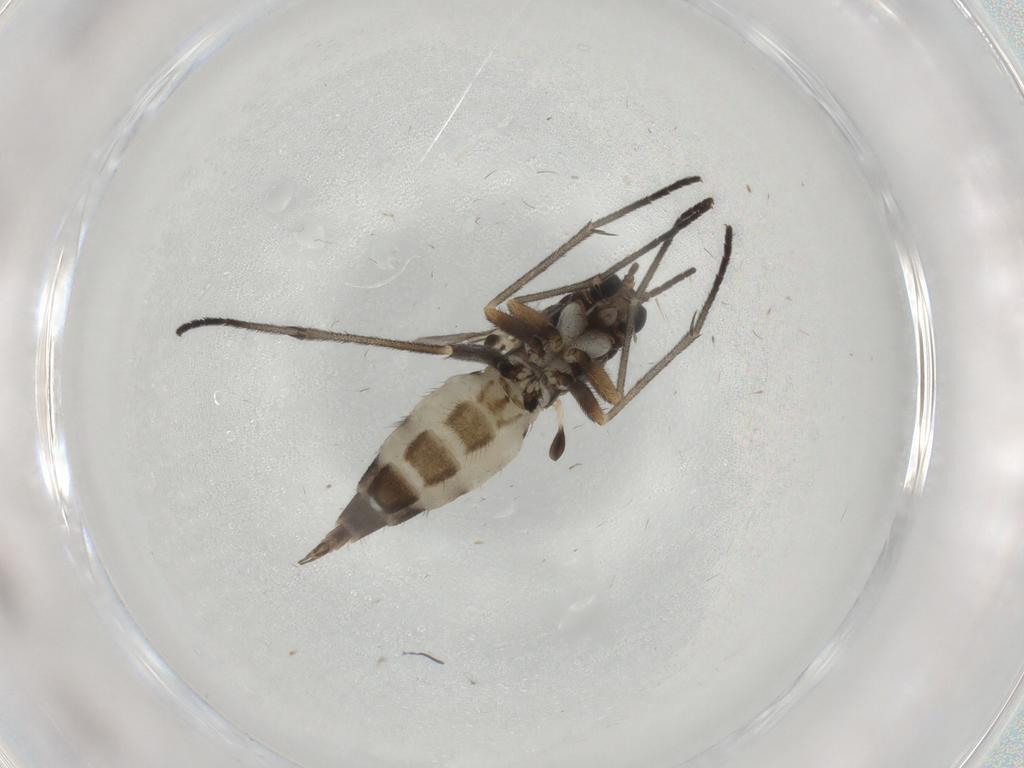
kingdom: Animalia
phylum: Arthropoda
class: Insecta
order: Diptera
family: Sciaridae
